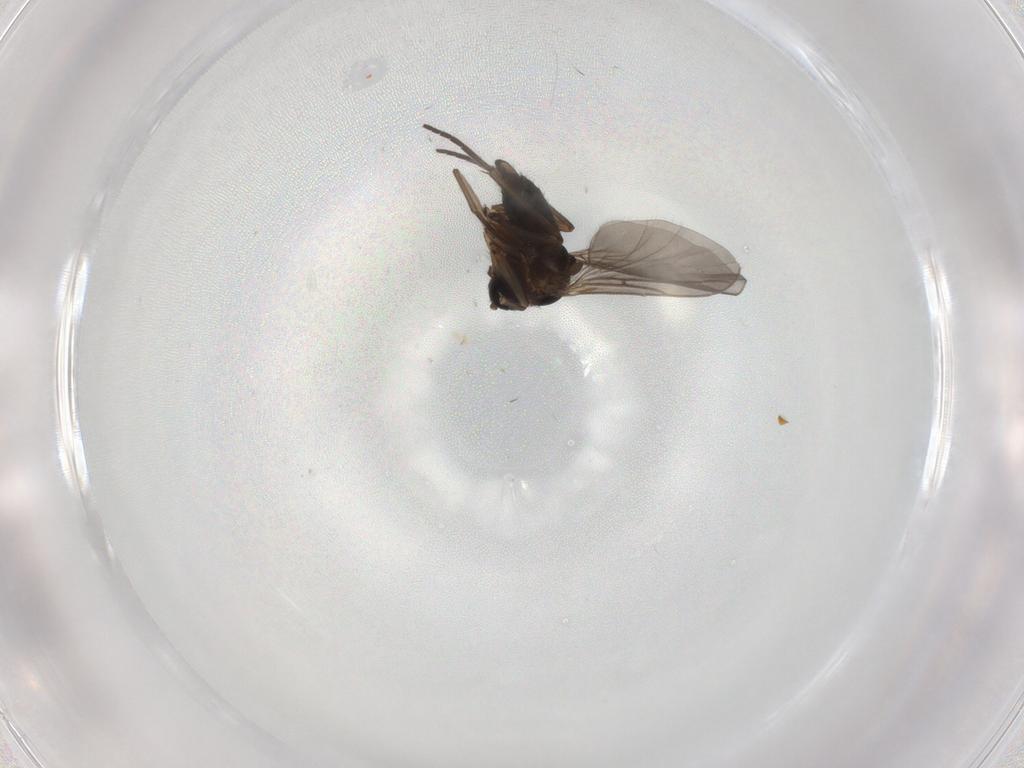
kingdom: Animalia
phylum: Arthropoda
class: Insecta
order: Diptera
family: Sciaridae
